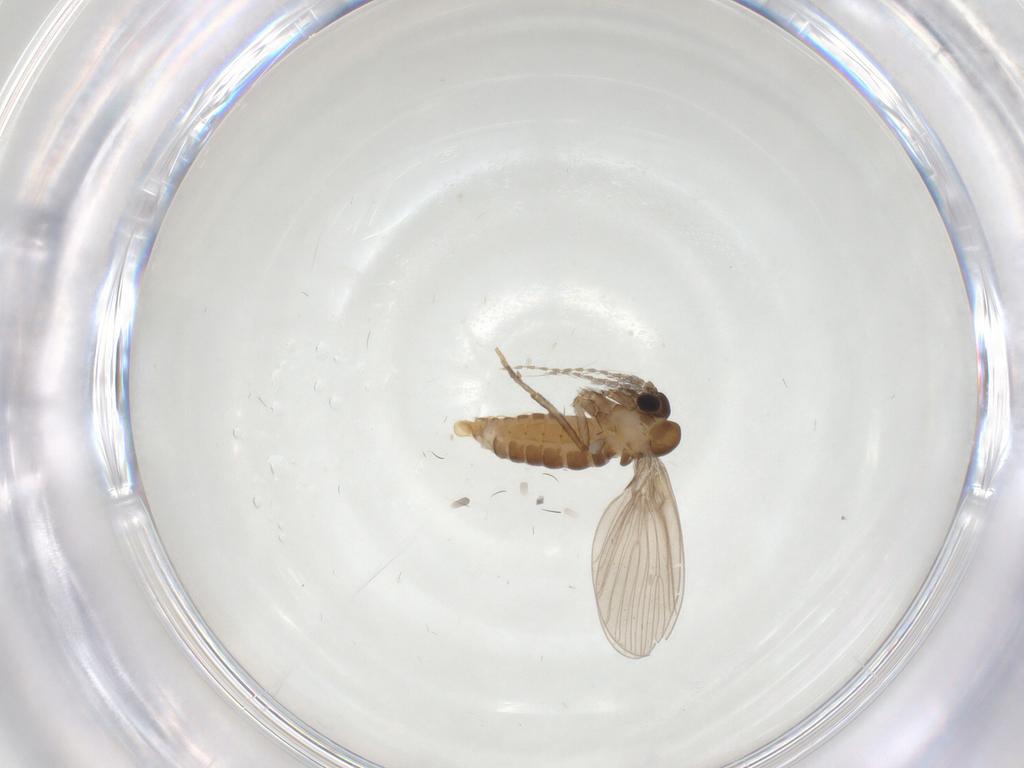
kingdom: Animalia
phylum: Arthropoda
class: Insecta
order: Diptera
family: Psychodidae
